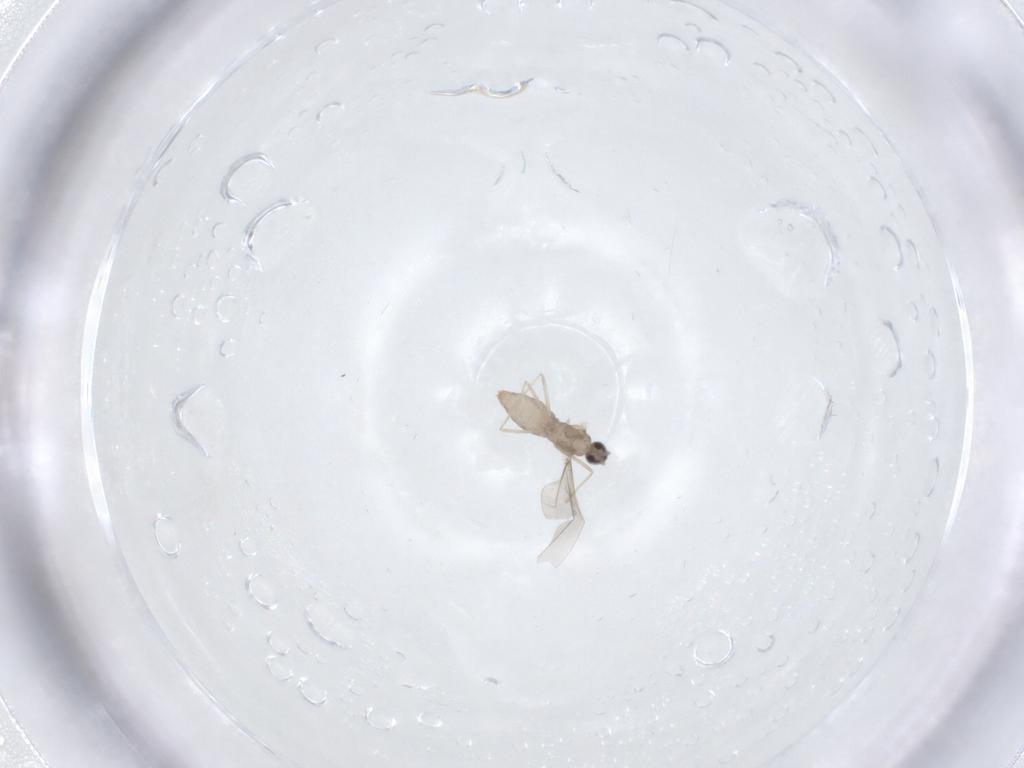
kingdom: Animalia
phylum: Arthropoda
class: Insecta
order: Diptera
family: Cecidomyiidae
